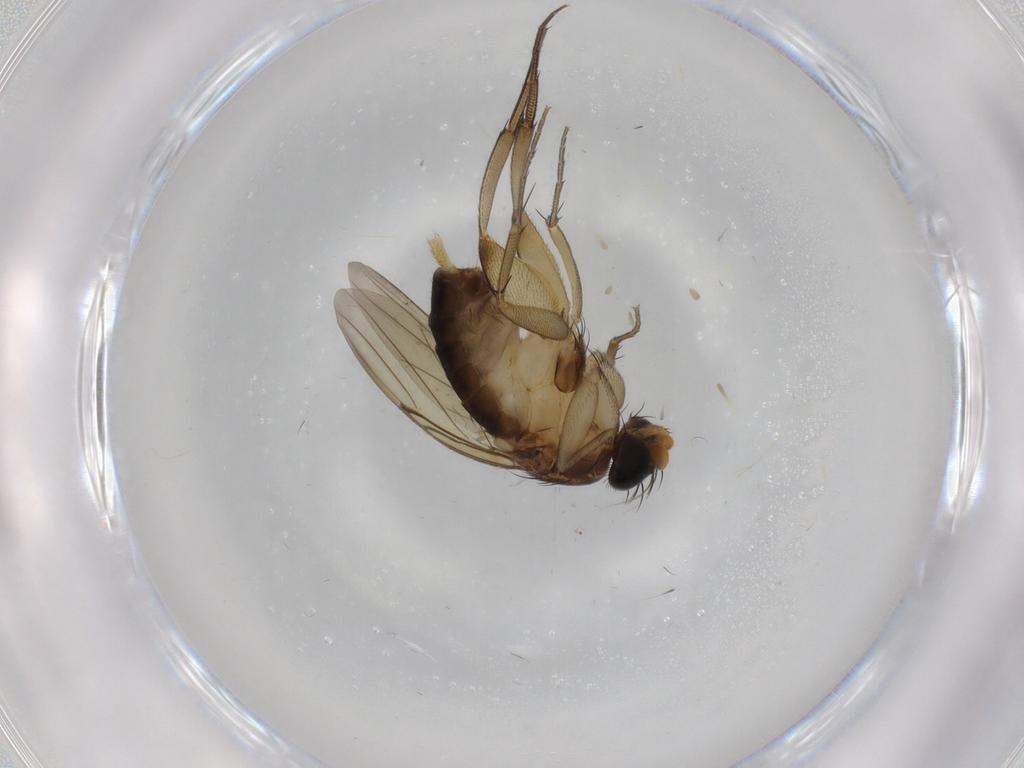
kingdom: Animalia
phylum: Arthropoda
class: Insecta
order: Diptera
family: Phoridae
